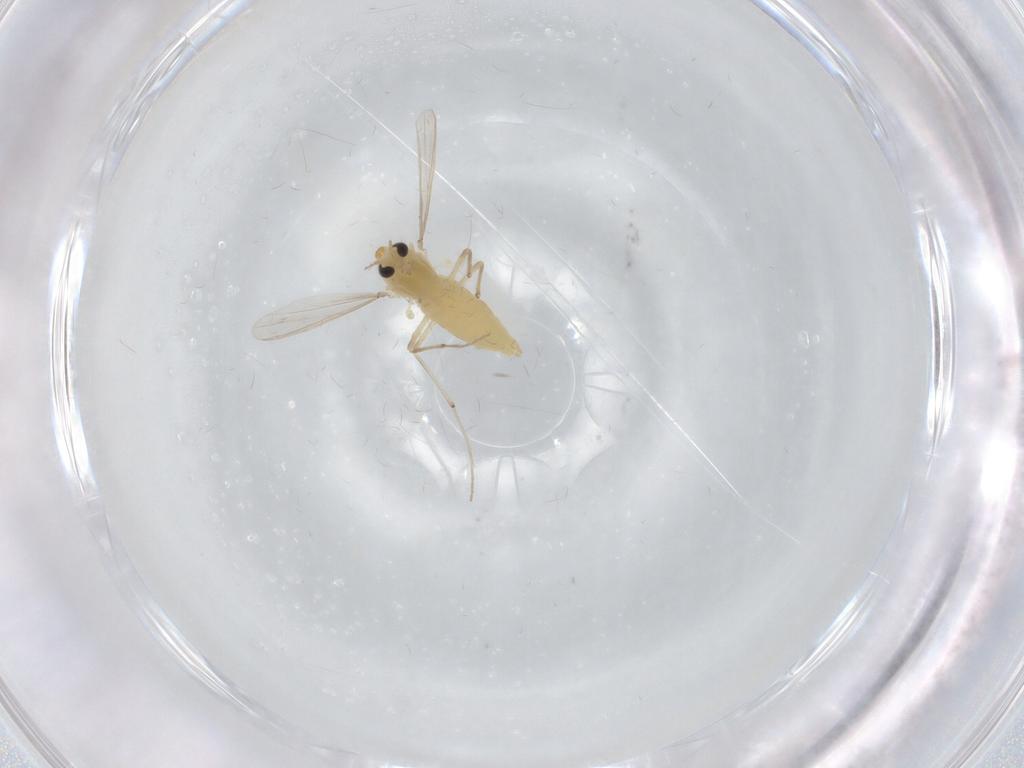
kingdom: Animalia
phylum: Arthropoda
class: Insecta
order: Diptera
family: Chironomidae
